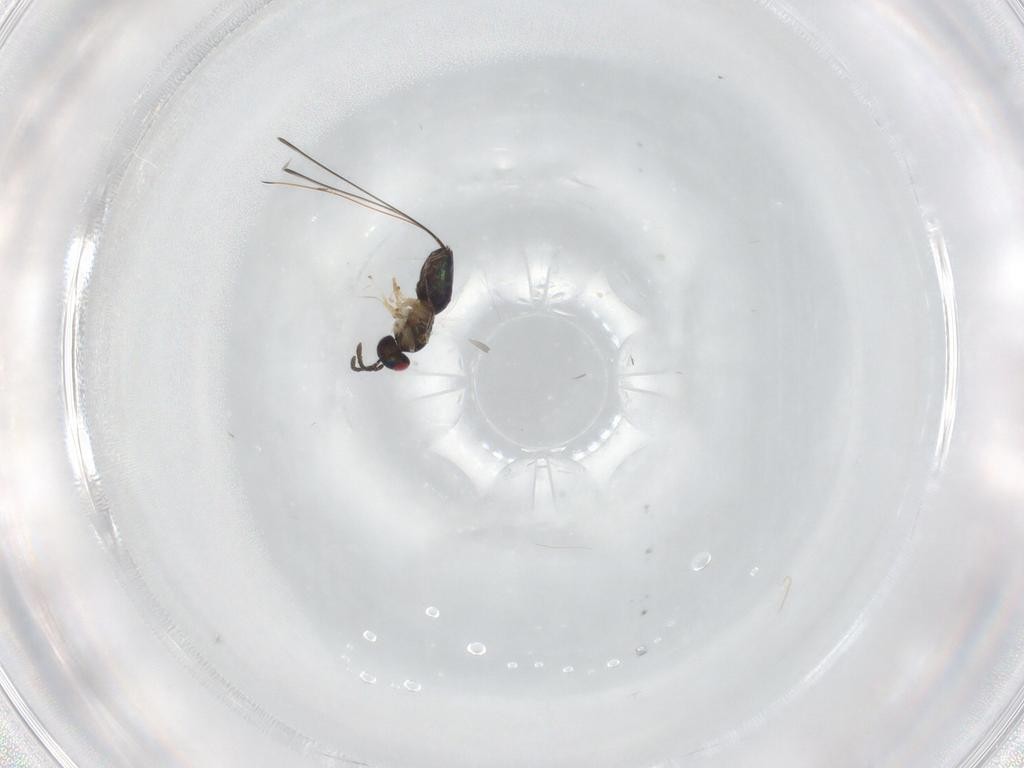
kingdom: Animalia
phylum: Arthropoda
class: Insecta
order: Hymenoptera
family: Pteromalidae
